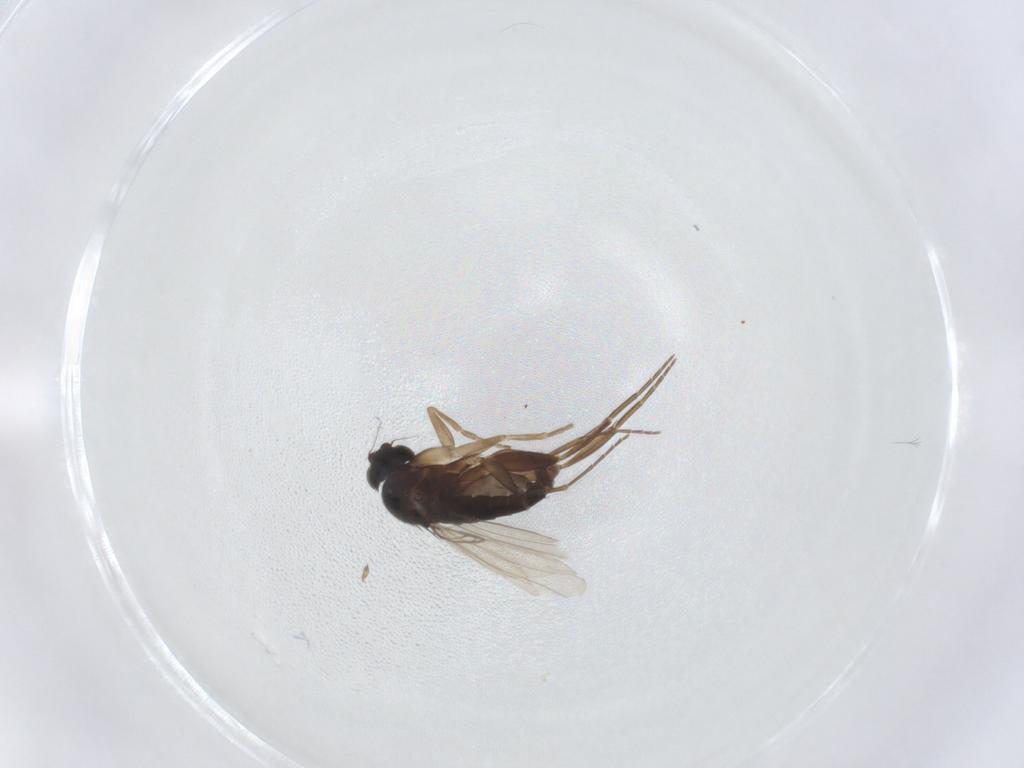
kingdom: Animalia
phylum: Arthropoda
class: Insecta
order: Diptera
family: Phoridae
